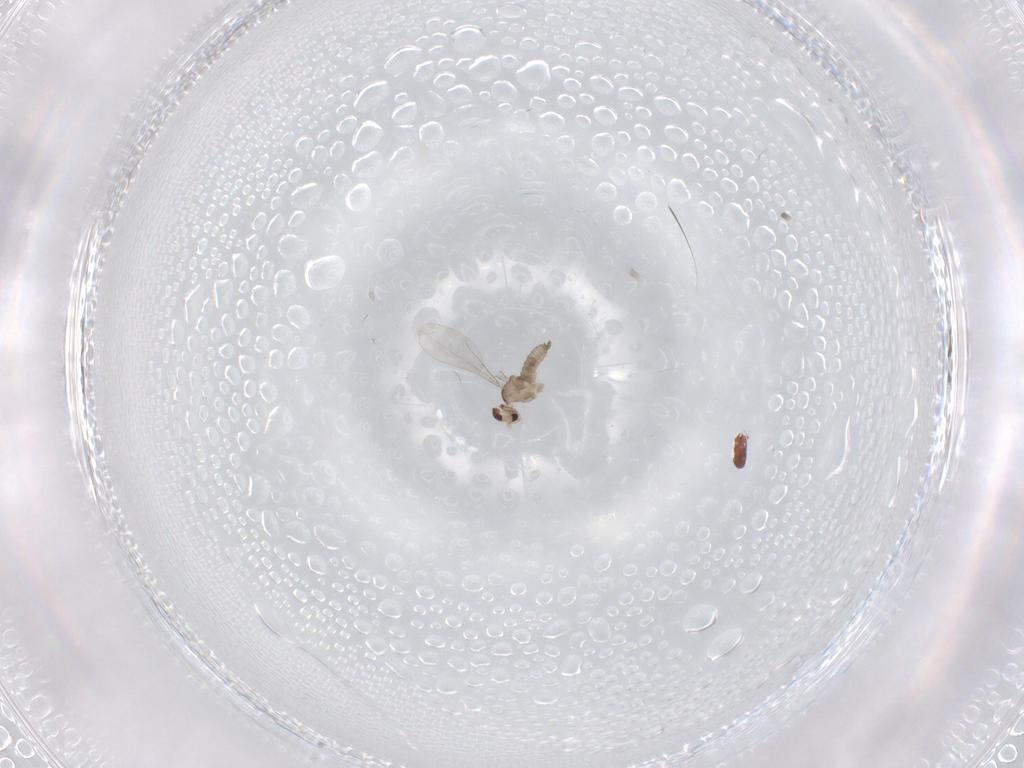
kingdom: Animalia
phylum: Arthropoda
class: Insecta
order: Diptera
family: Cecidomyiidae
